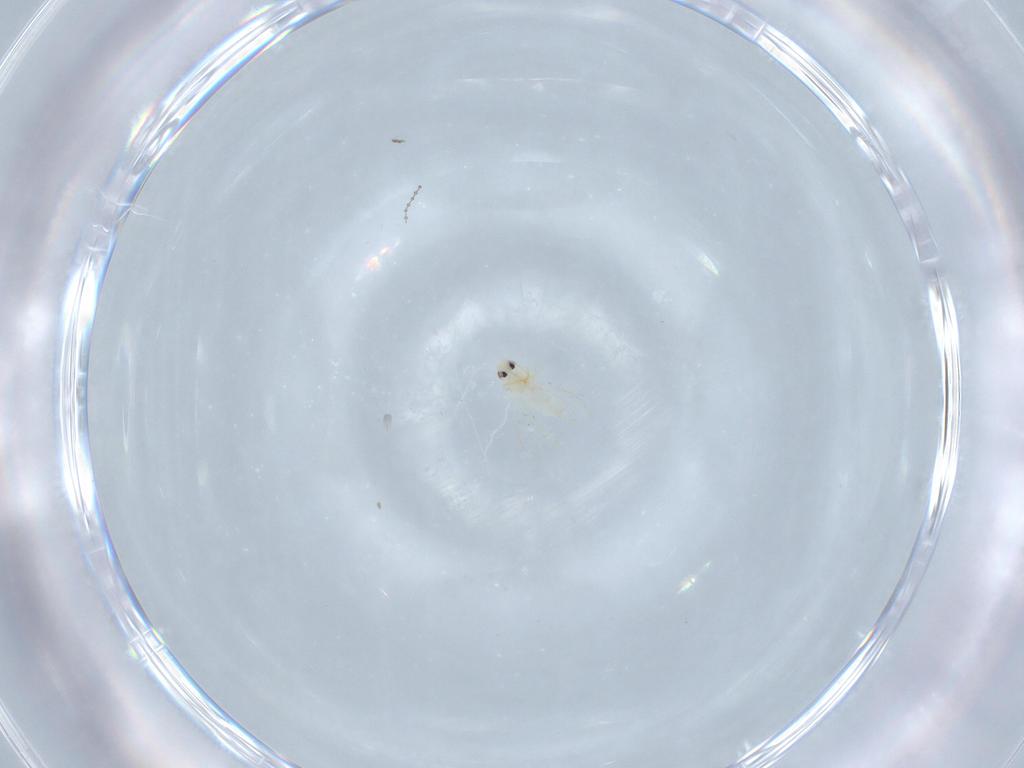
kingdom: Animalia
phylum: Arthropoda
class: Insecta
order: Hemiptera
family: Aleyrodidae
